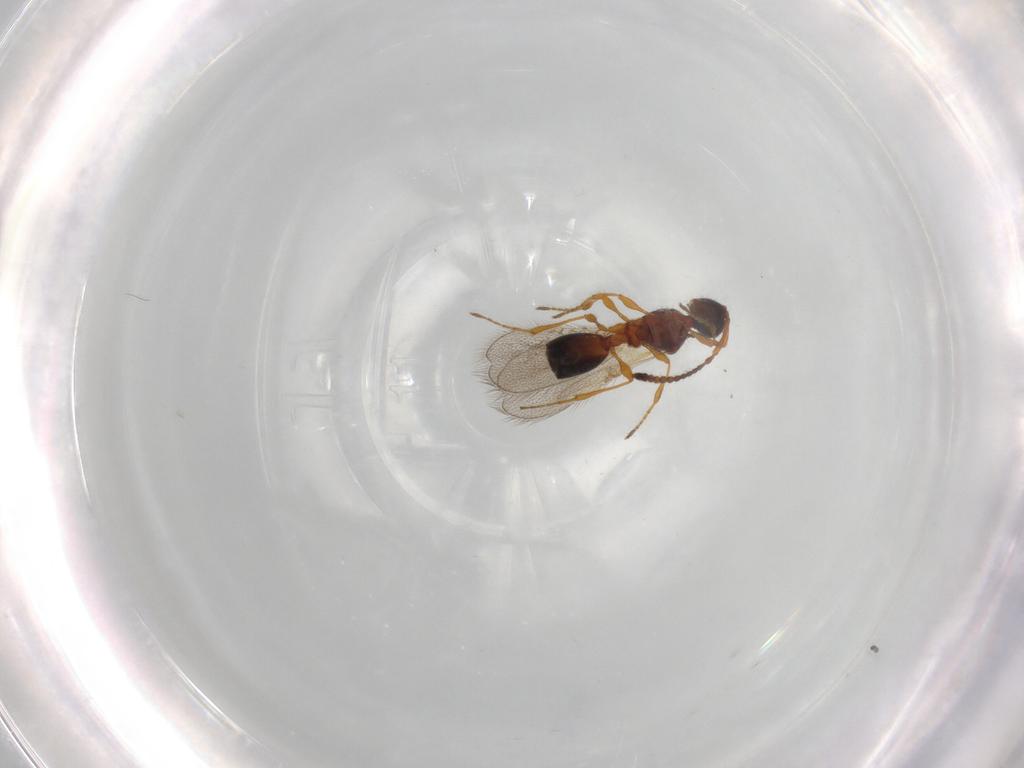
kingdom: Animalia
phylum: Arthropoda
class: Insecta
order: Hymenoptera
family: Diapriidae
